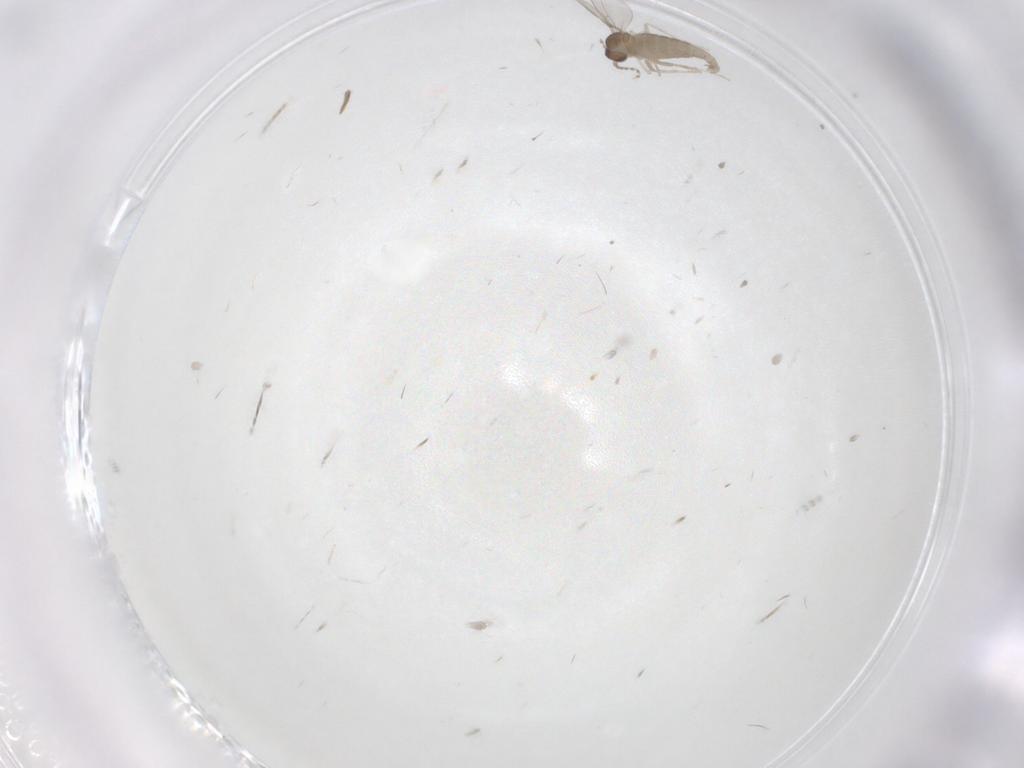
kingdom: Animalia
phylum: Arthropoda
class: Insecta
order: Diptera
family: Cecidomyiidae
